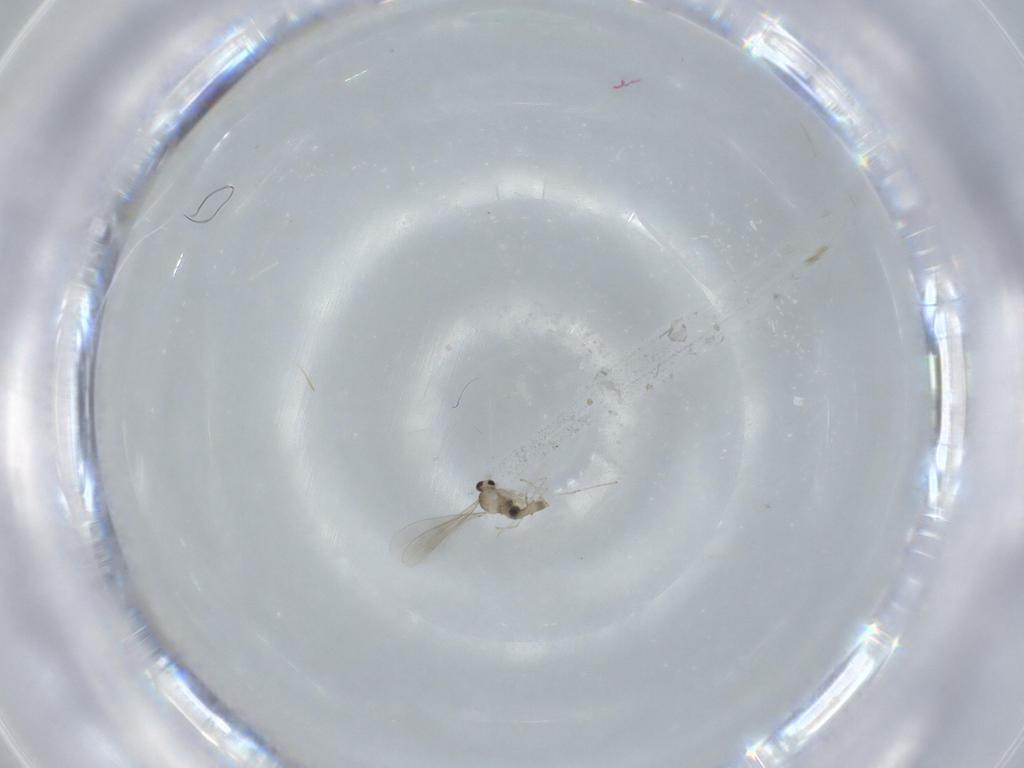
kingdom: Animalia
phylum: Arthropoda
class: Insecta
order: Diptera
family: Cecidomyiidae
